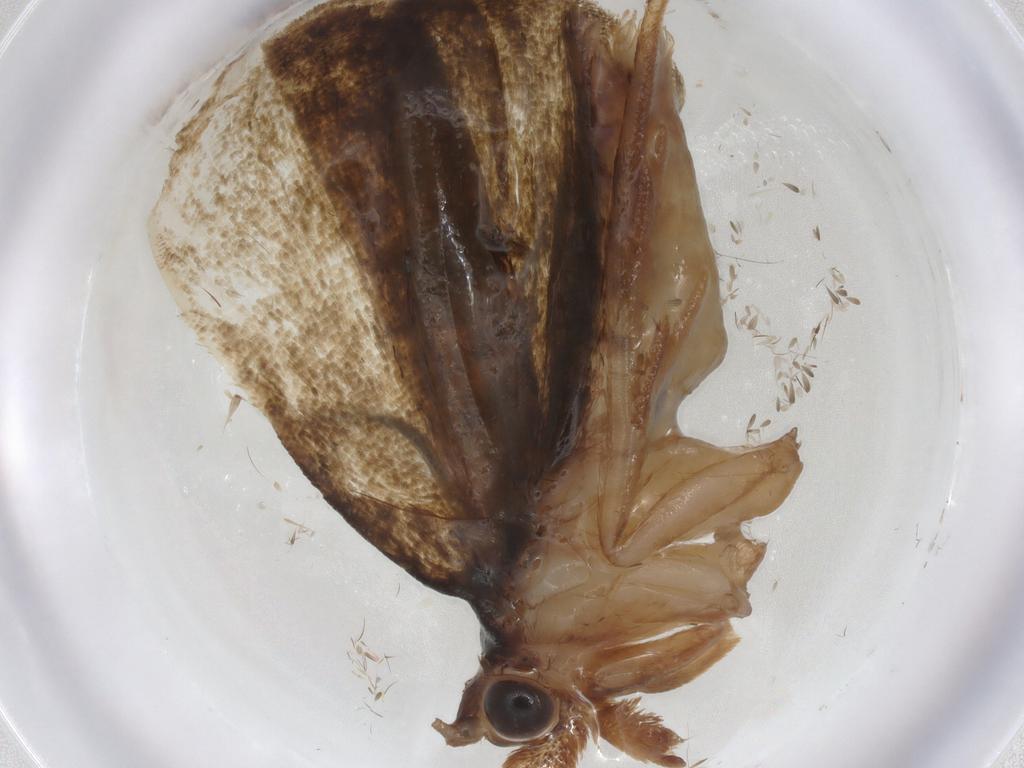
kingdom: Animalia
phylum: Arthropoda
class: Insecta
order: Lepidoptera
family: Geometridae
